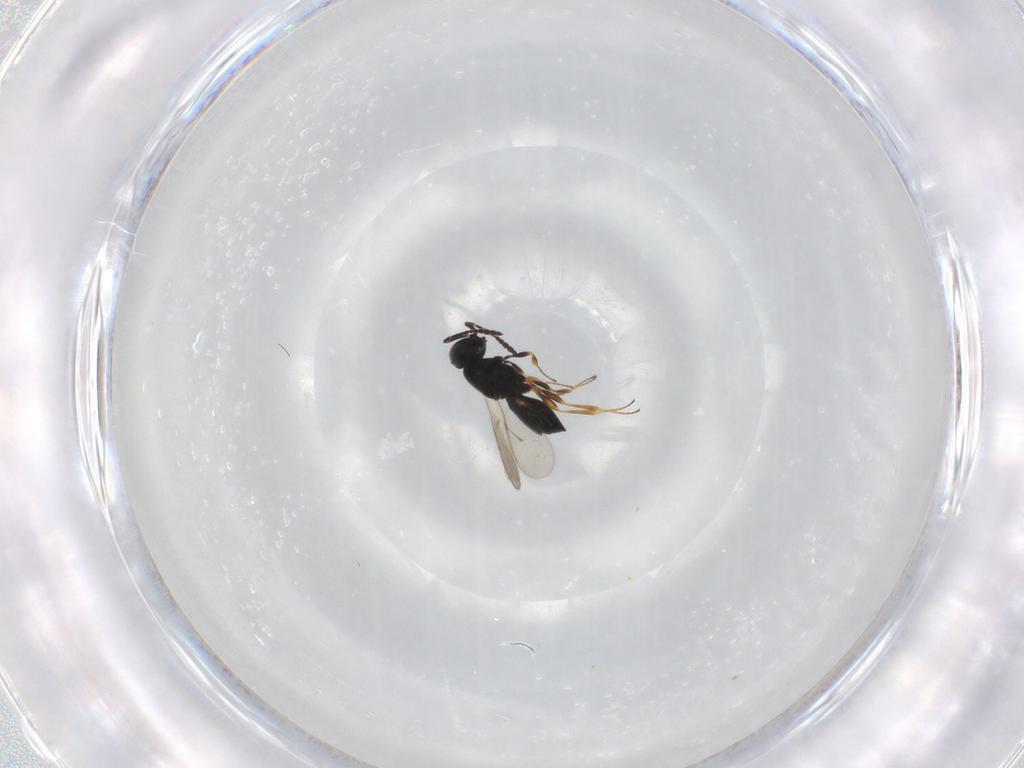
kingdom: Animalia
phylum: Arthropoda
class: Insecta
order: Hymenoptera
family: Scelionidae
